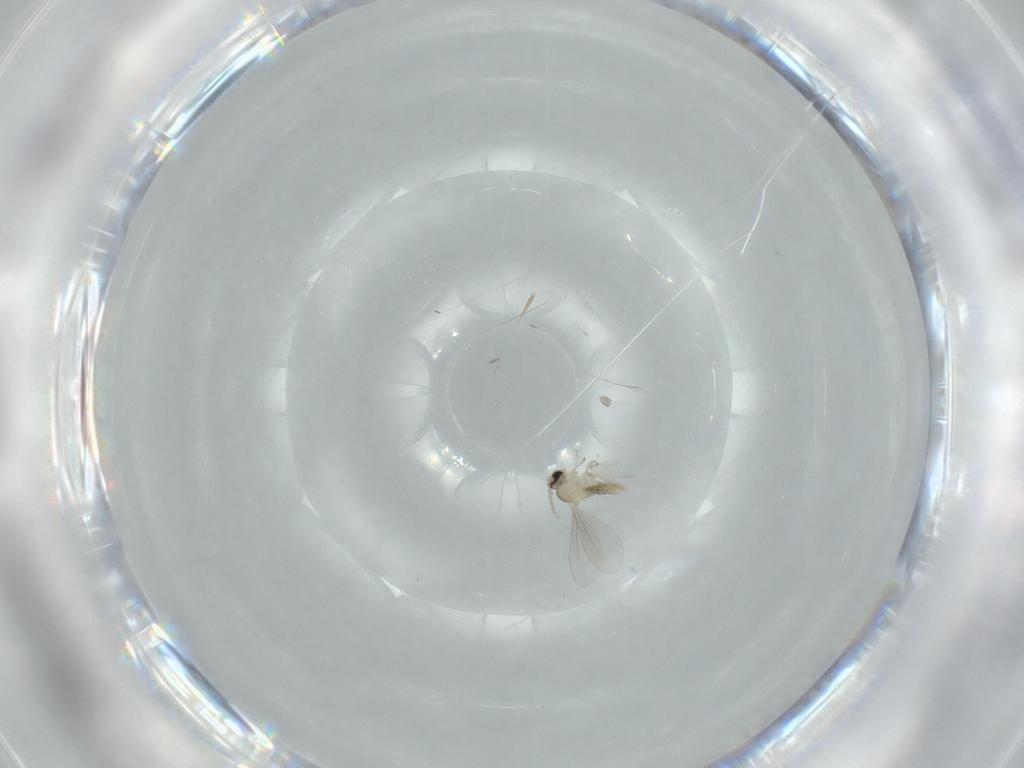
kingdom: Animalia
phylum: Arthropoda
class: Insecta
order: Diptera
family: Cecidomyiidae
